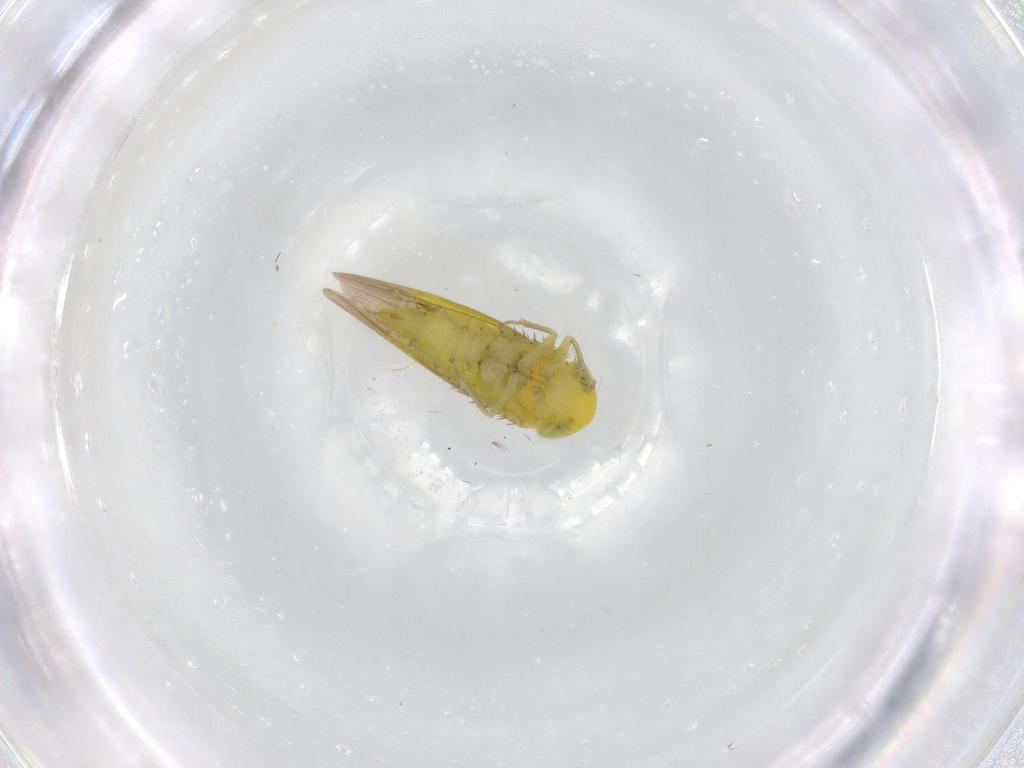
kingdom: Animalia
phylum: Arthropoda
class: Insecta
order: Hemiptera
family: Cicadellidae
